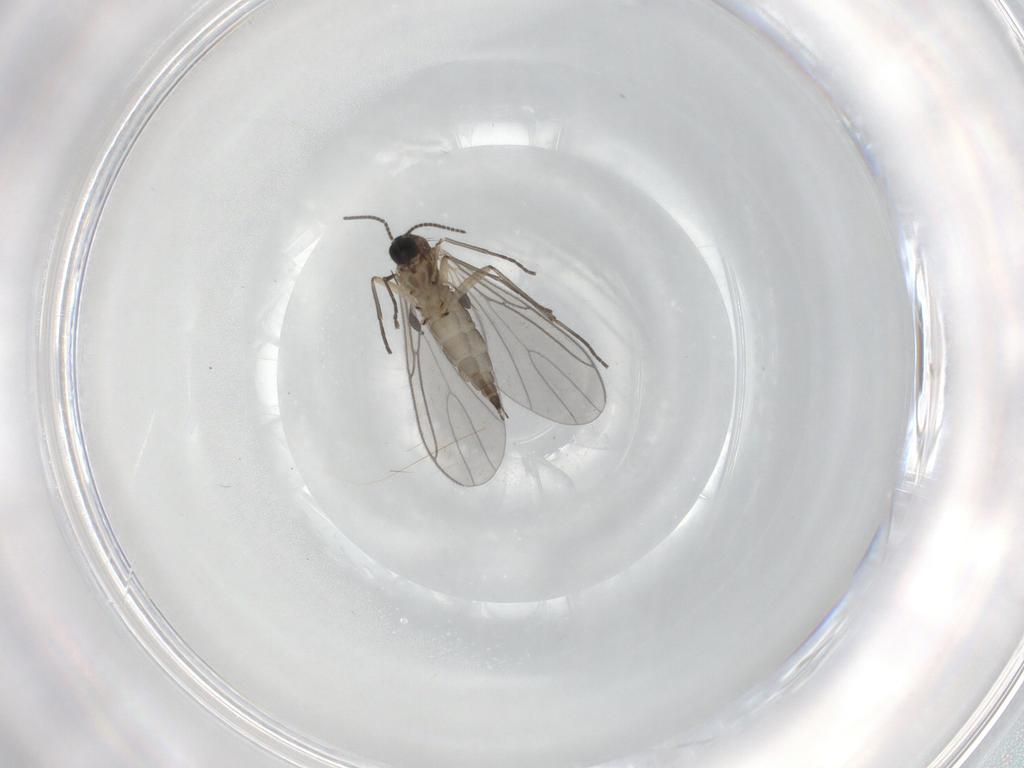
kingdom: Animalia
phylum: Arthropoda
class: Insecta
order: Diptera
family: Sciaridae
